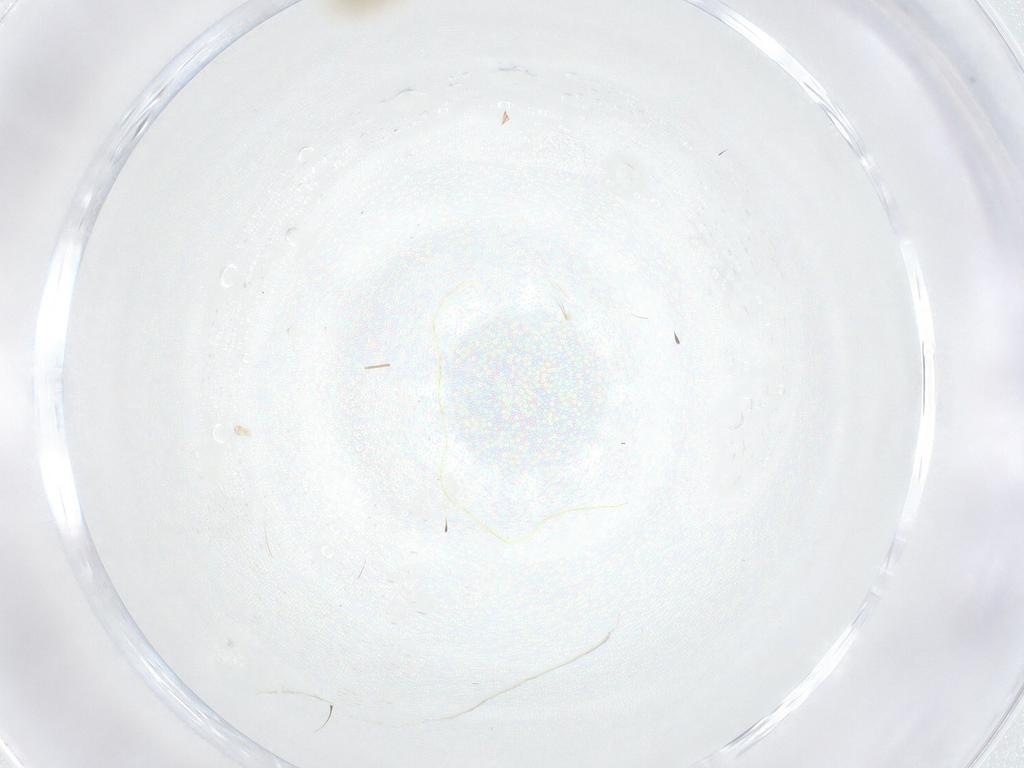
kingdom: Animalia
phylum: Arthropoda
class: Insecta
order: Diptera
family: Cecidomyiidae
